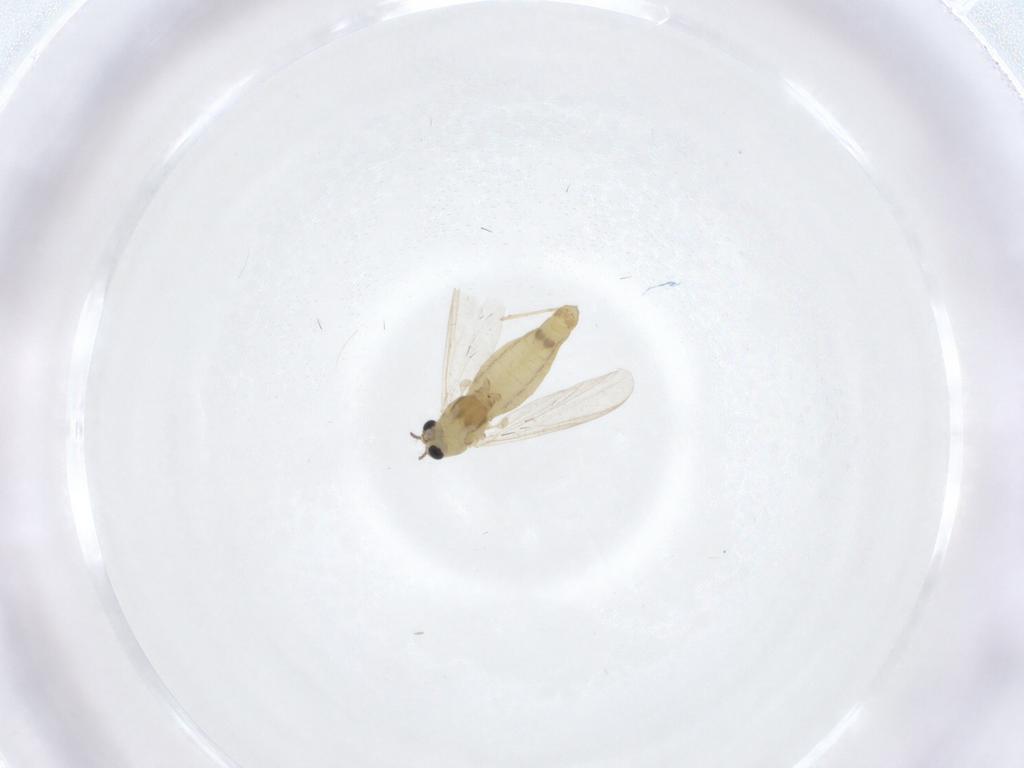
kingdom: Animalia
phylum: Arthropoda
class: Insecta
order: Diptera
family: Chironomidae
